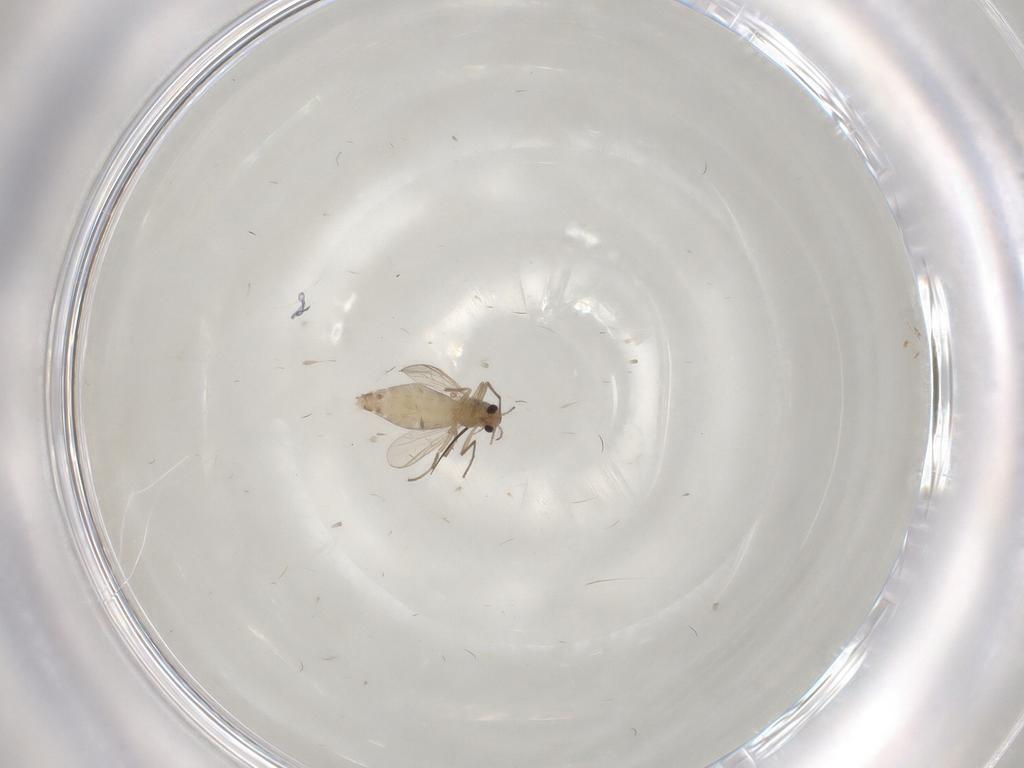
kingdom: Animalia
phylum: Arthropoda
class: Insecta
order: Diptera
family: Chironomidae
